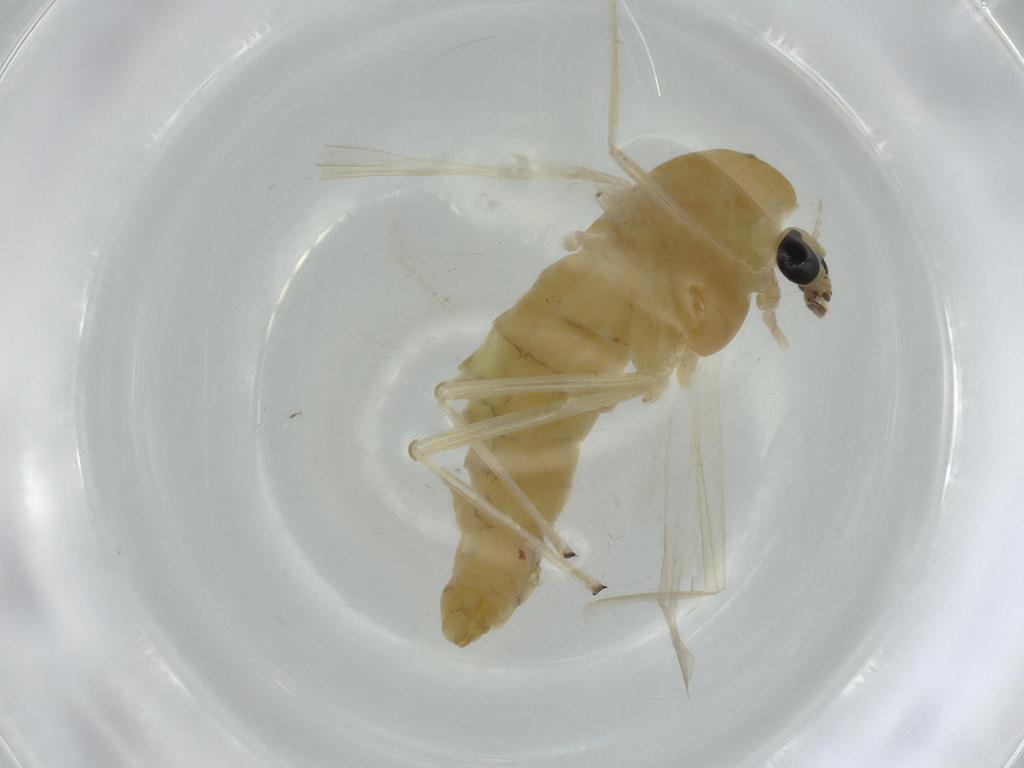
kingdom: Animalia
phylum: Arthropoda
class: Insecta
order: Diptera
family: Chironomidae
